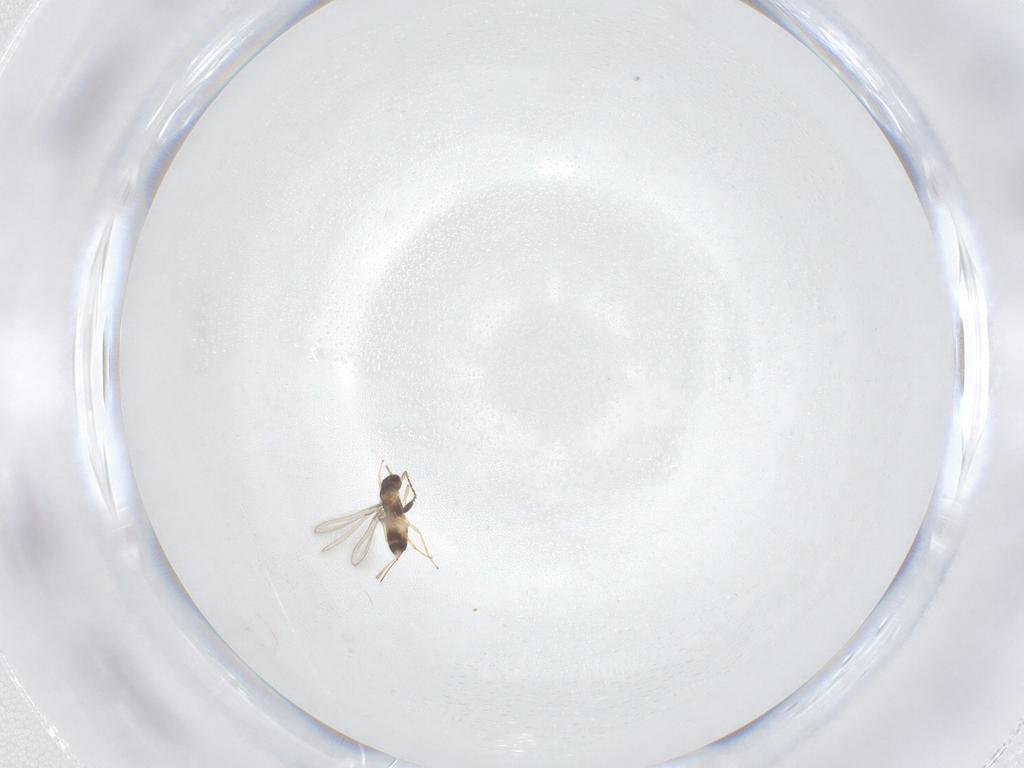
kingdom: Animalia
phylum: Arthropoda
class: Insecta
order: Hymenoptera
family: Mymaridae
